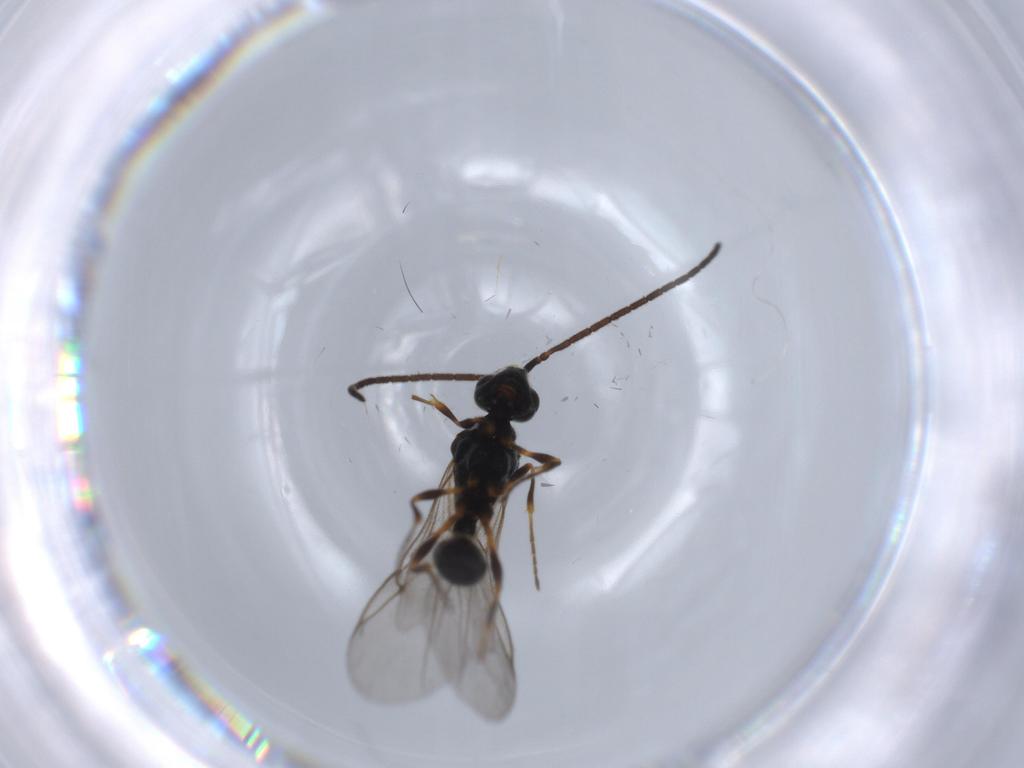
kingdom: Animalia
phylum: Arthropoda
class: Insecta
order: Hymenoptera
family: Diapriidae
